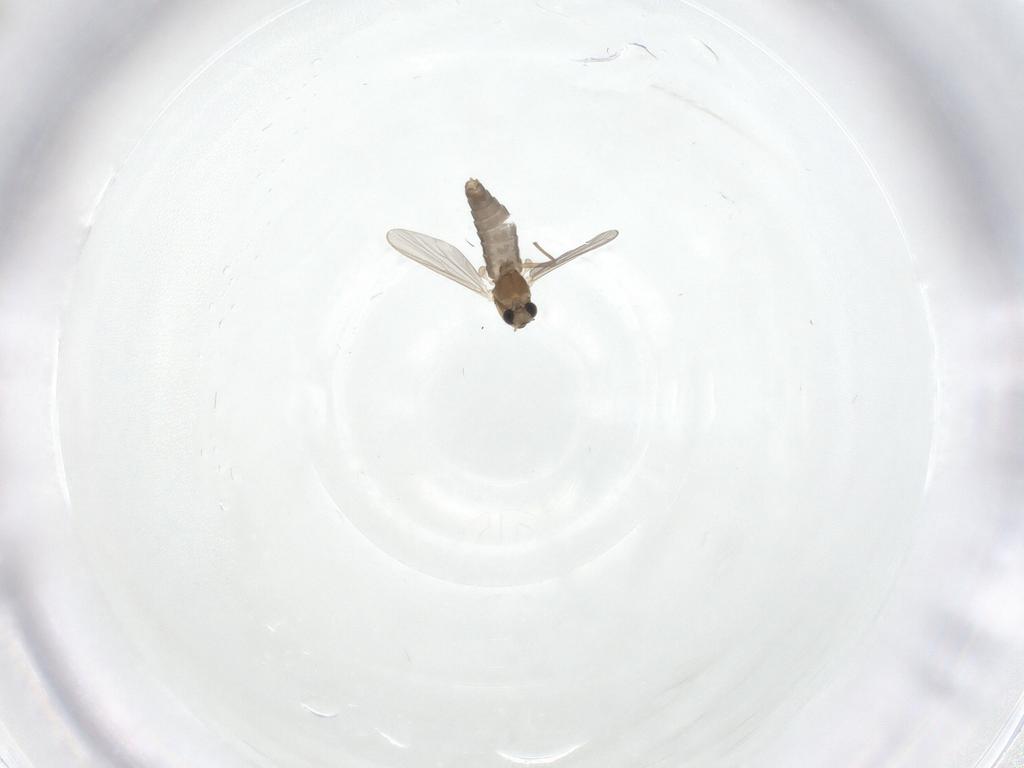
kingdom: Animalia
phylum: Arthropoda
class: Insecta
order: Diptera
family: Chironomidae
